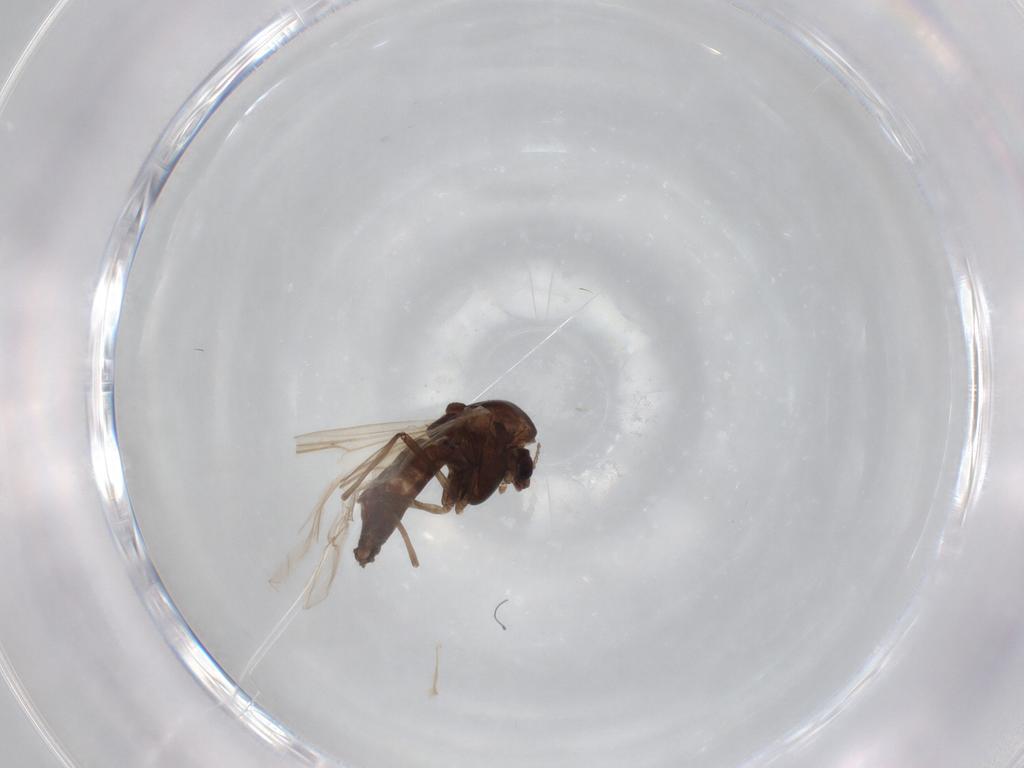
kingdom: Animalia
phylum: Arthropoda
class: Insecta
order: Diptera
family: Chironomidae
